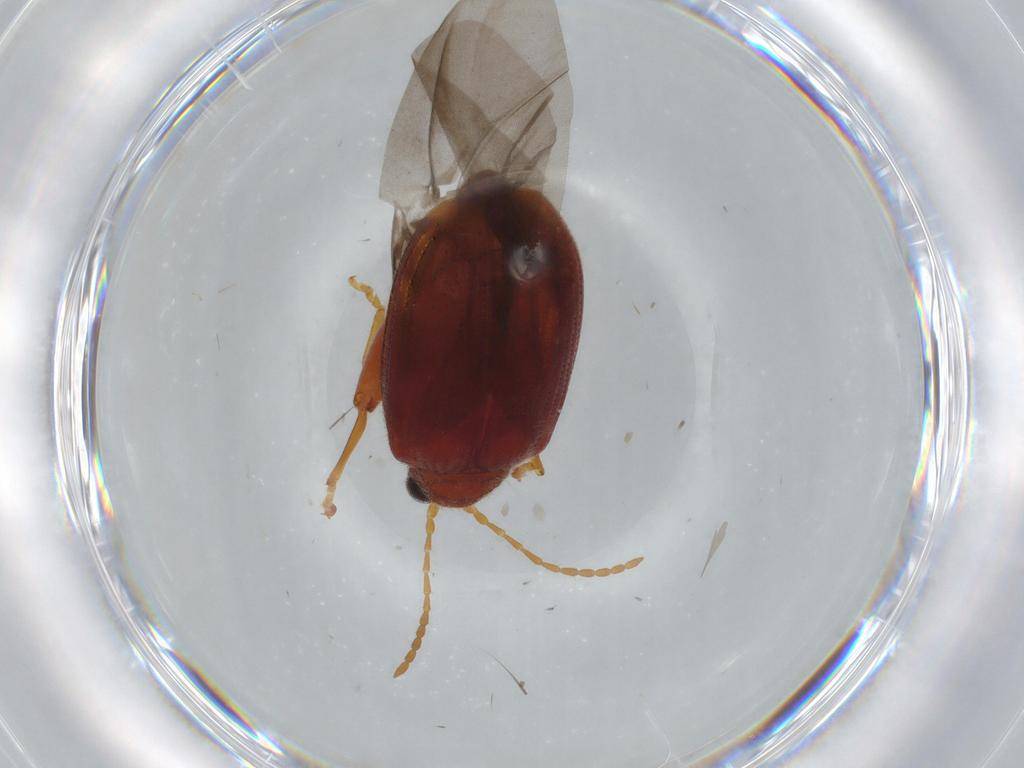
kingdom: Animalia
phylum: Arthropoda
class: Insecta
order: Coleoptera
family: Chrysomelidae
